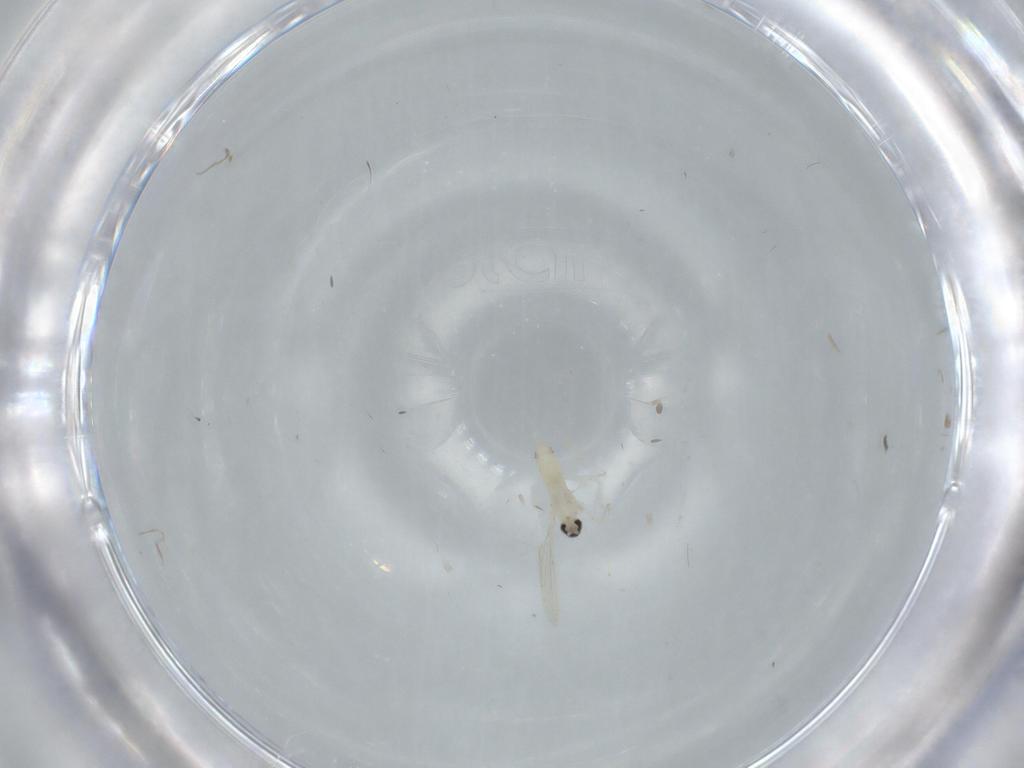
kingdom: Animalia
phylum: Arthropoda
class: Insecta
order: Diptera
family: Cecidomyiidae
